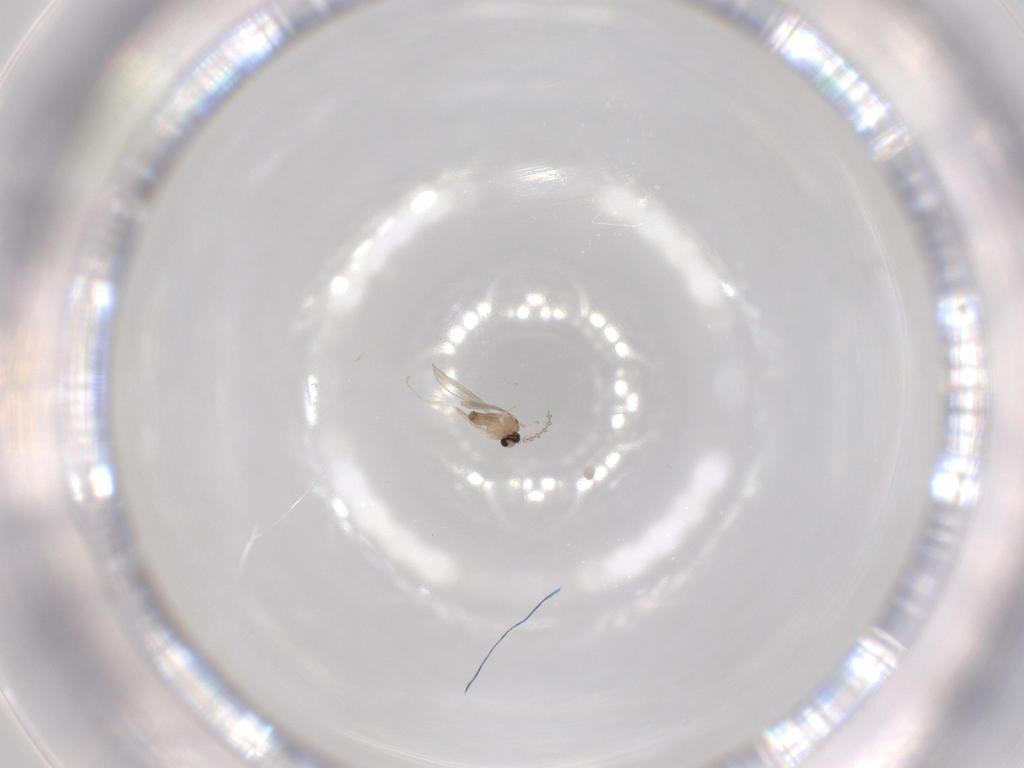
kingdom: Animalia
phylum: Arthropoda
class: Insecta
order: Diptera
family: Cecidomyiidae
